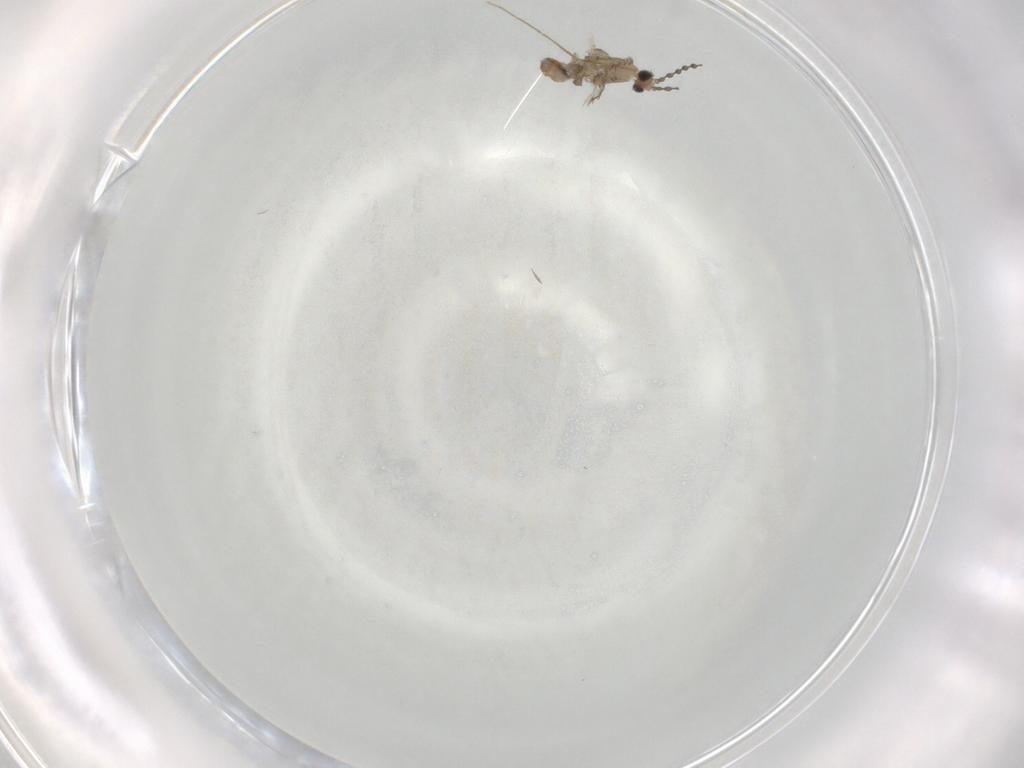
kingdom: Animalia
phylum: Arthropoda
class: Insecta
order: Diptera
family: Cecidomyiidae
